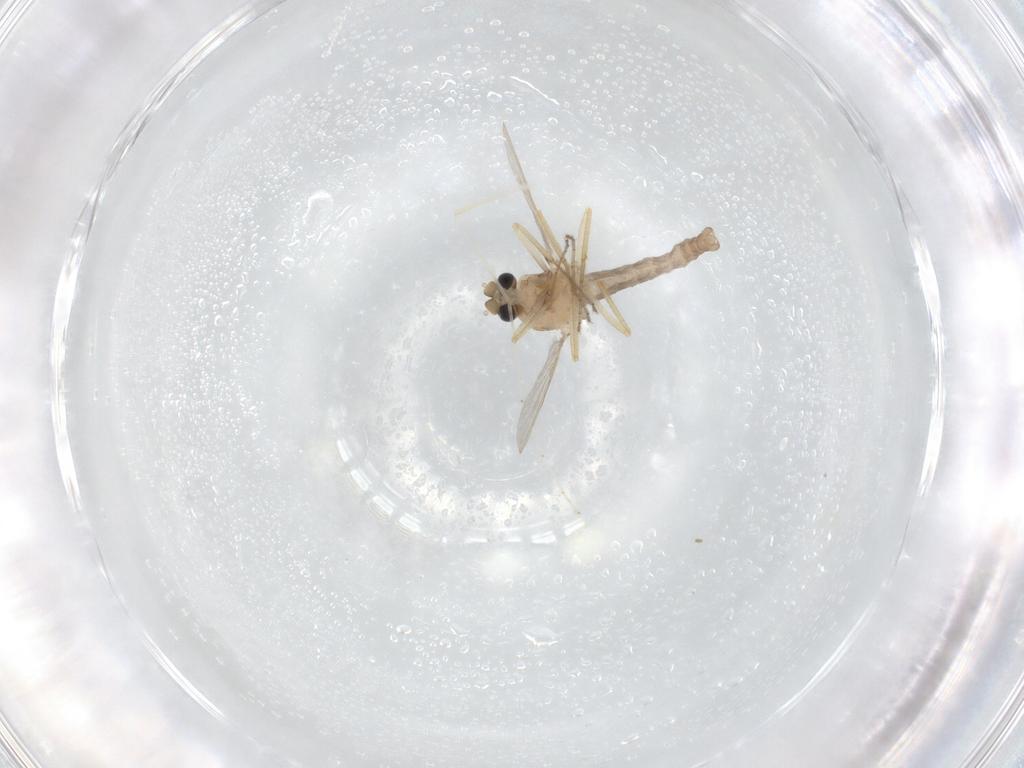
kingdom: Animalia
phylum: Arthropoda
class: Insecta
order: Diptera
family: Ceratopogonidae
